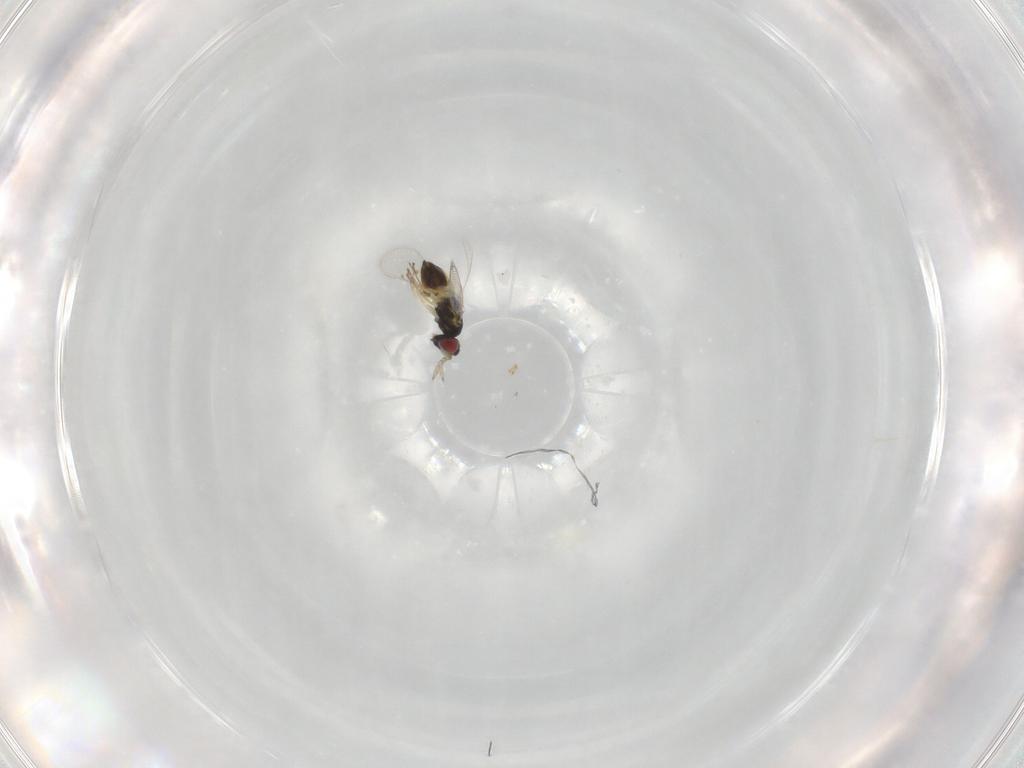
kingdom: Animalia
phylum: Arthropoda
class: Insecta
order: Hymenoptera
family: Eulophidae
